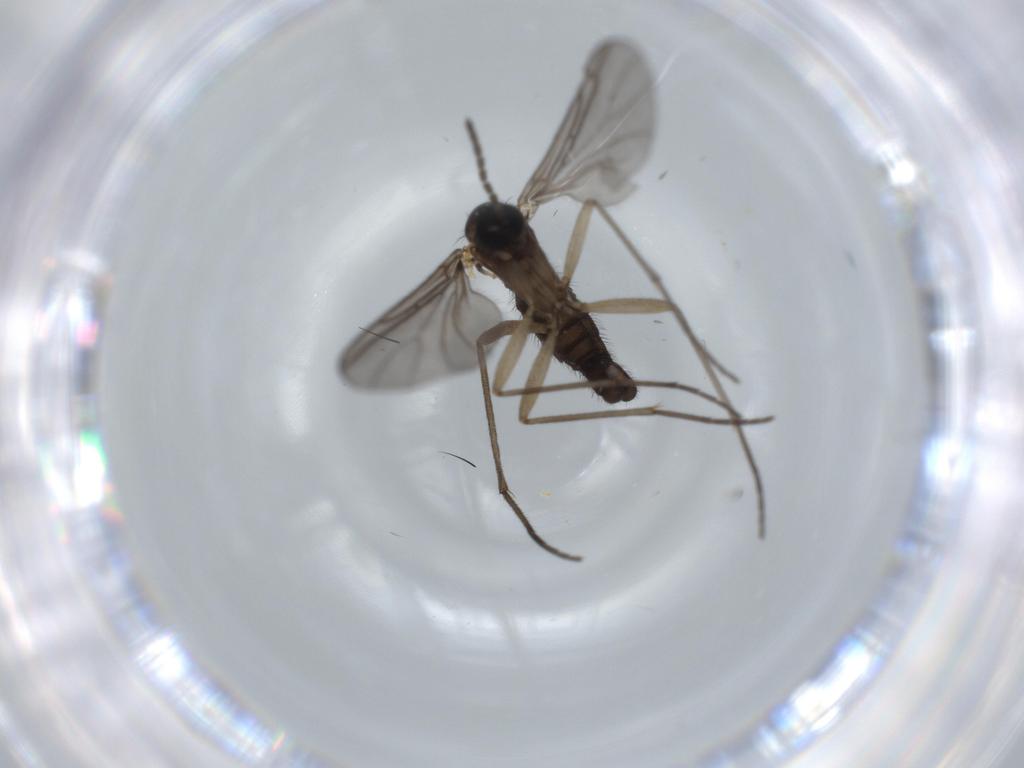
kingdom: Animalia
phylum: Arthropoda
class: Insecta
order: Diptera
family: Sciaridae
